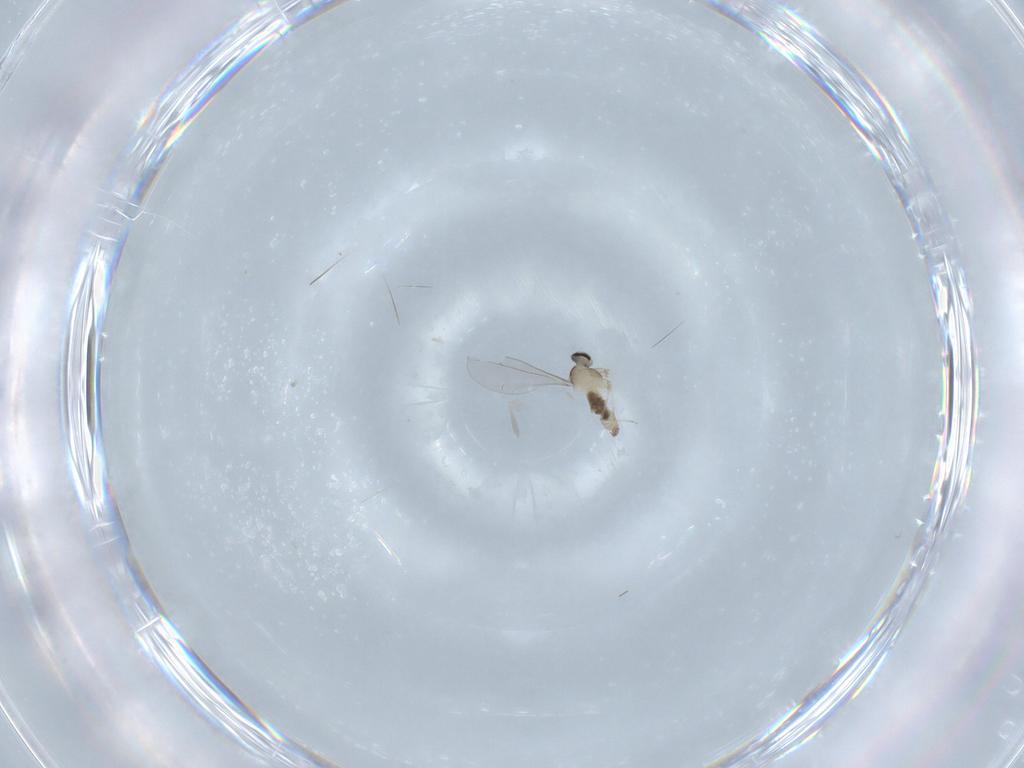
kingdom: Animalia
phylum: Arthropoda
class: Insecta
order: Diptera
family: Cecidomyiidae
